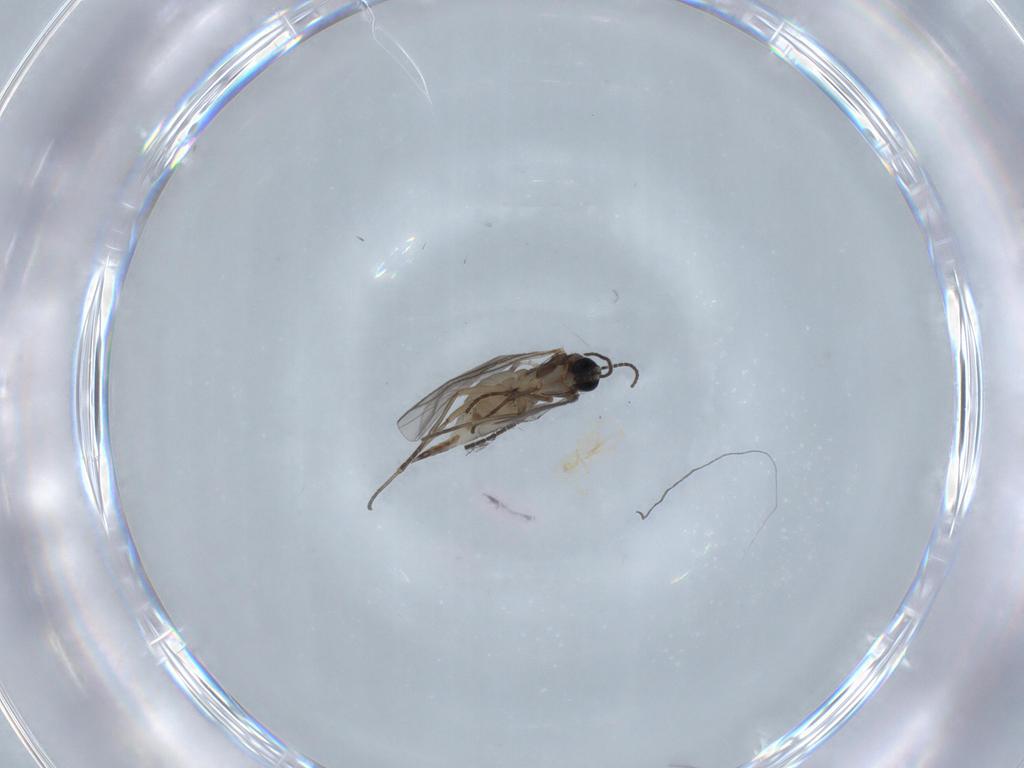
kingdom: Animalia
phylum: Arthropoda
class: Insecta
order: Diptera
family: Sciaridae
